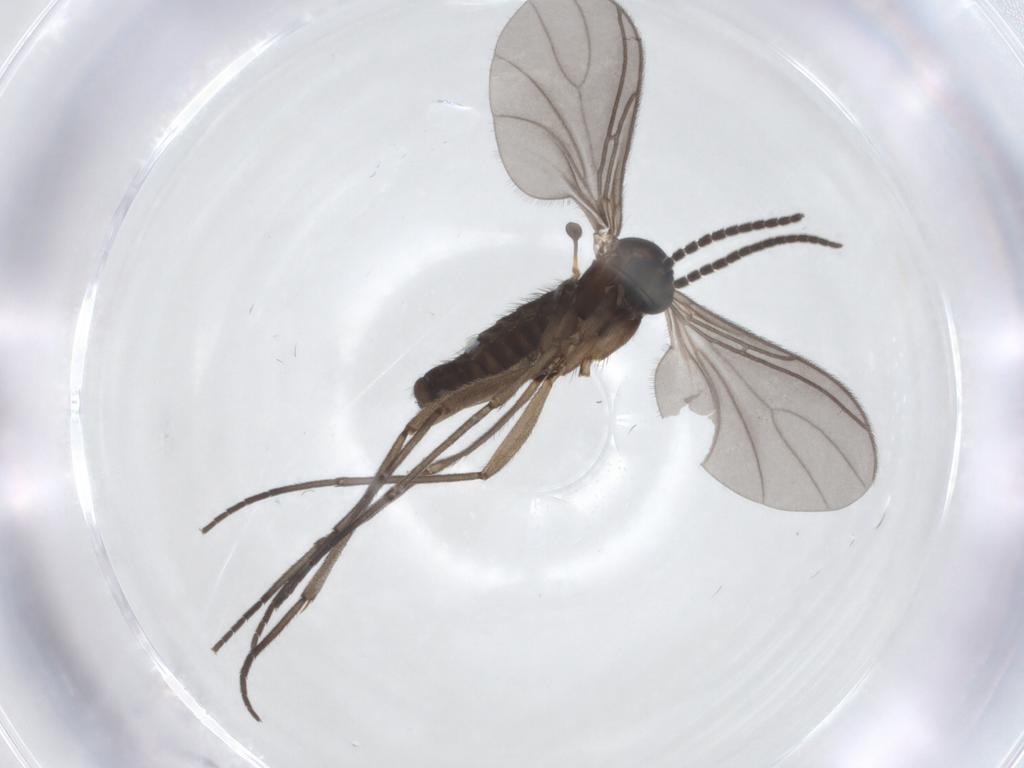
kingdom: Animalia
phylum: Arthropoda
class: Insecta
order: Diptera
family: Sciaridae
